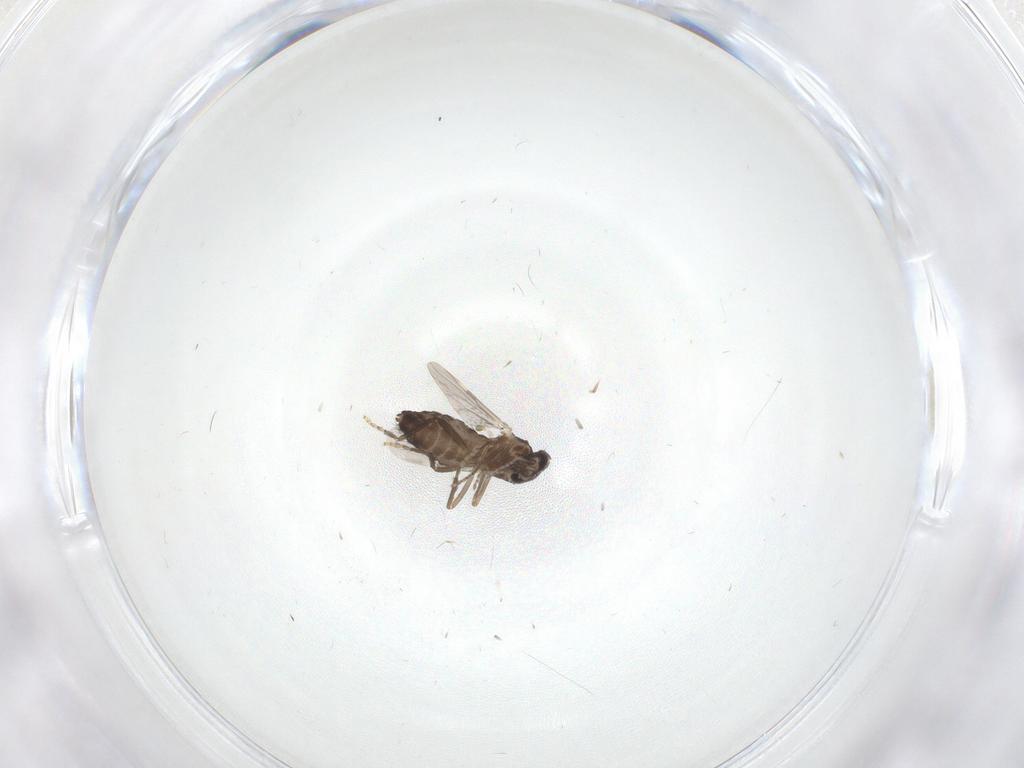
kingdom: Animalia
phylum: Arthropoda
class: Insecta
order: Diptera
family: Ceratopogonidae
